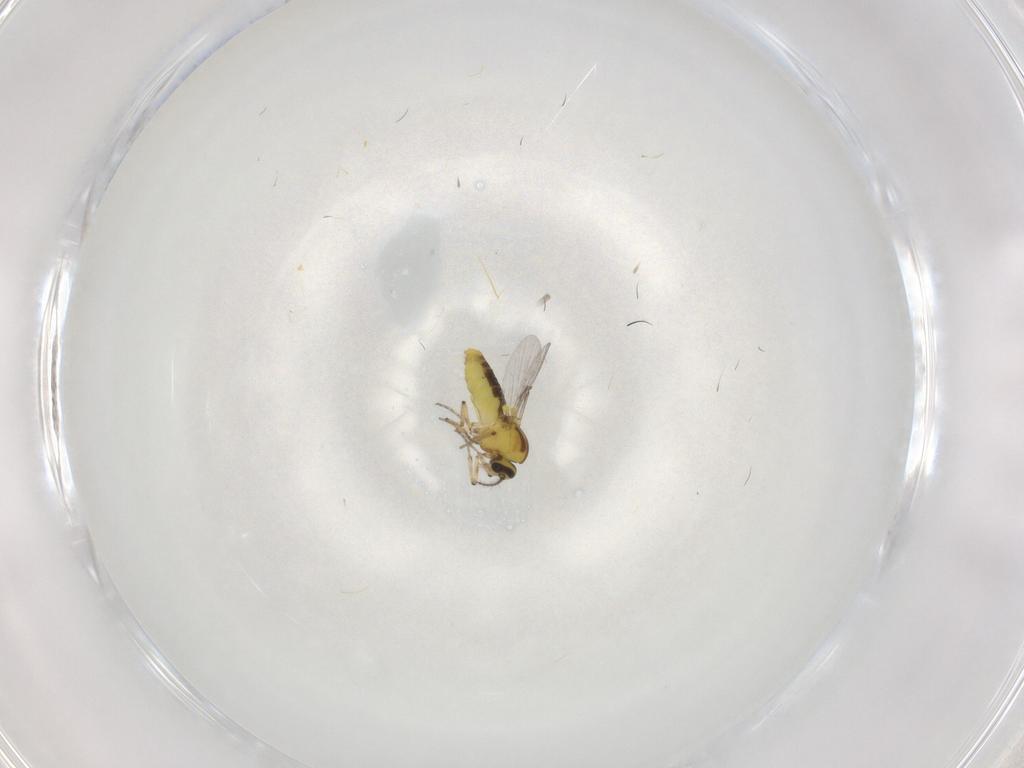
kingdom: Animalia
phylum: Arthropoda
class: Insecta
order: Diptera
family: Ceratopogonidae
